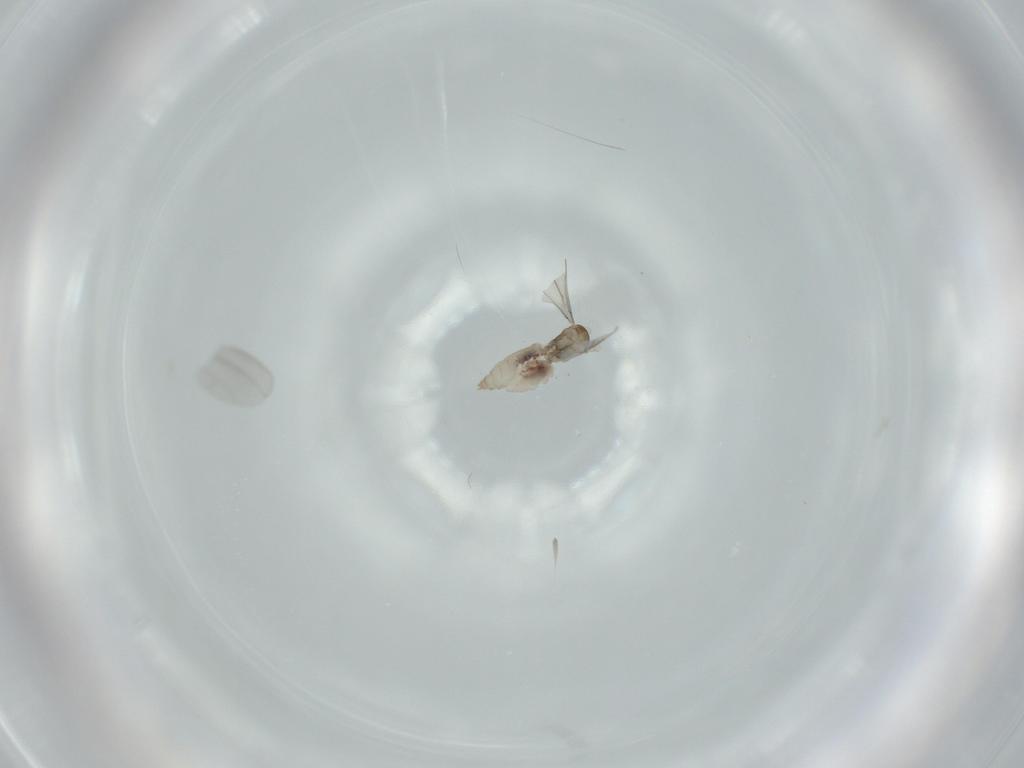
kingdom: Animalia
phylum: Arthropoda
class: Insecta
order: Diptera
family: Cecidomyiidae
